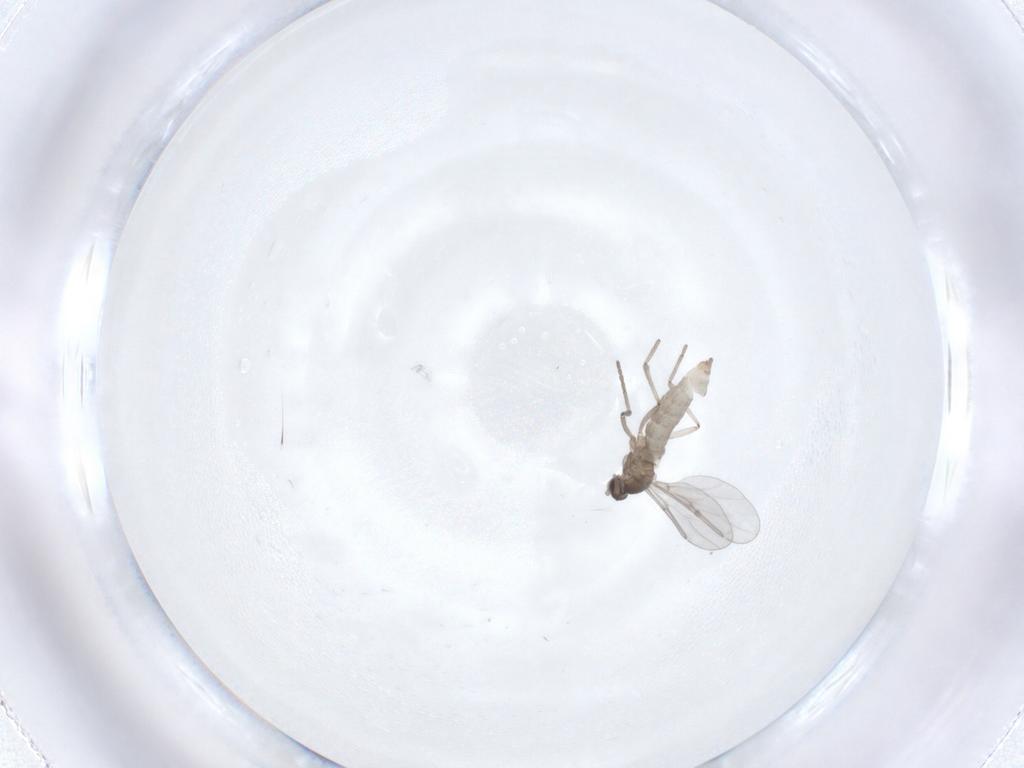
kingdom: Animalia
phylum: Arthropoda
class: Insecta
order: Diptera
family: Cecidomyiidae
